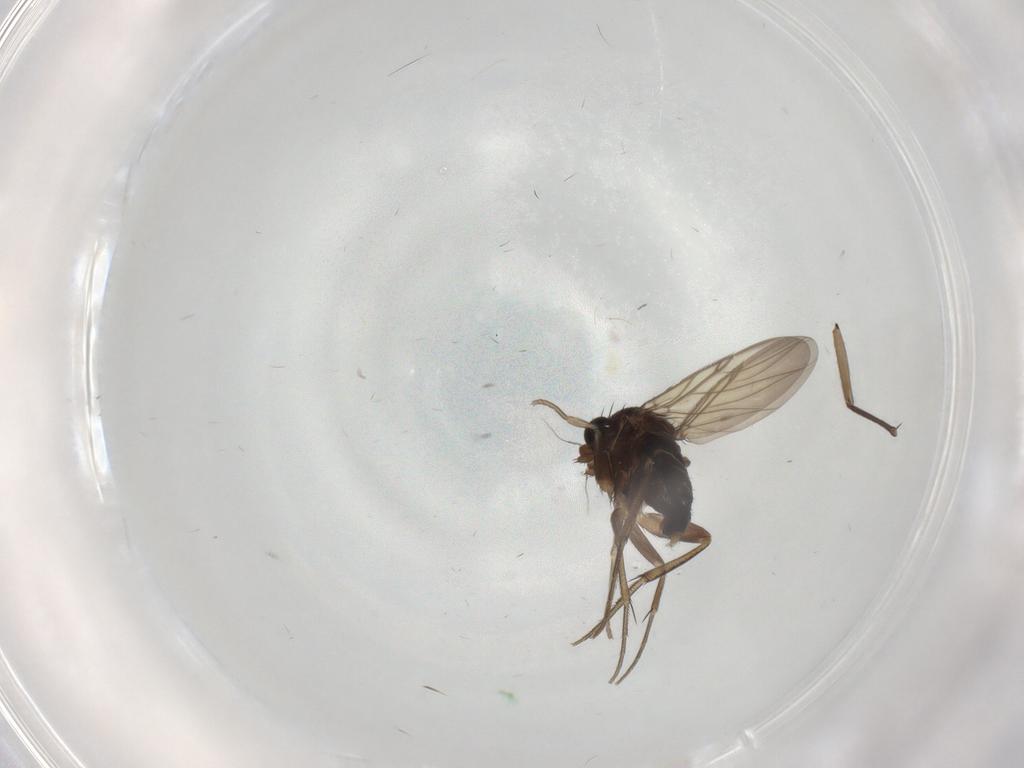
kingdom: Animalia
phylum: Arthropoda
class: Insecta
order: Diptera
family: Phoridae
